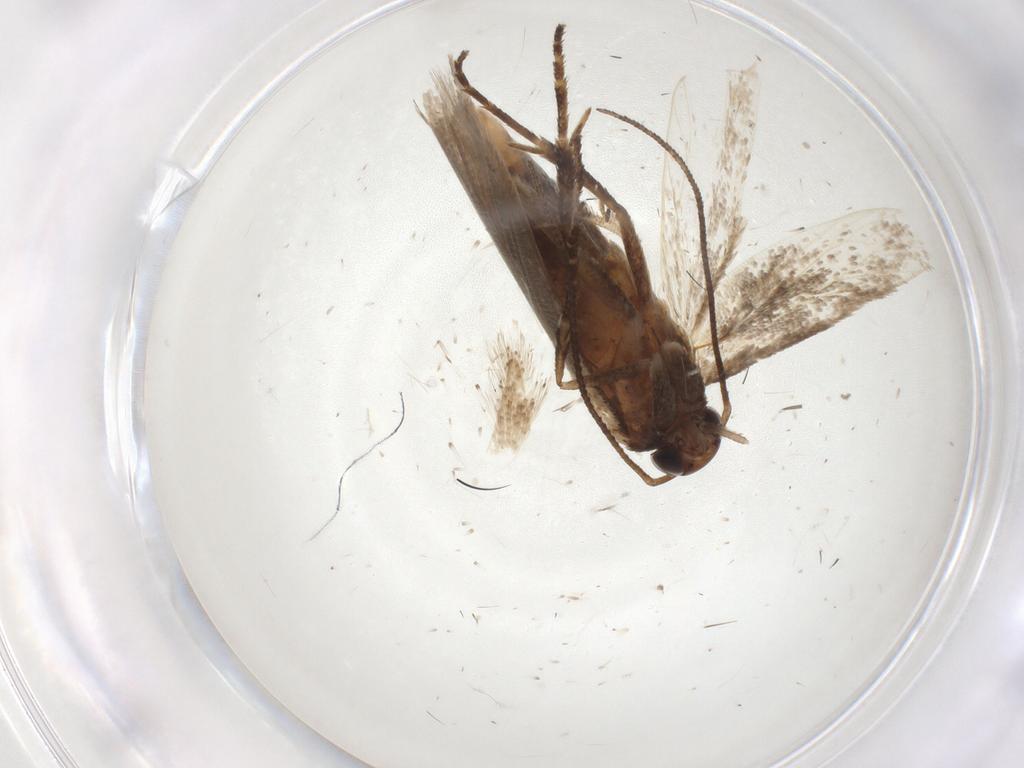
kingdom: Animalia
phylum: Arthropoda
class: Insecta
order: Lepidoptera
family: Gelechiidae
